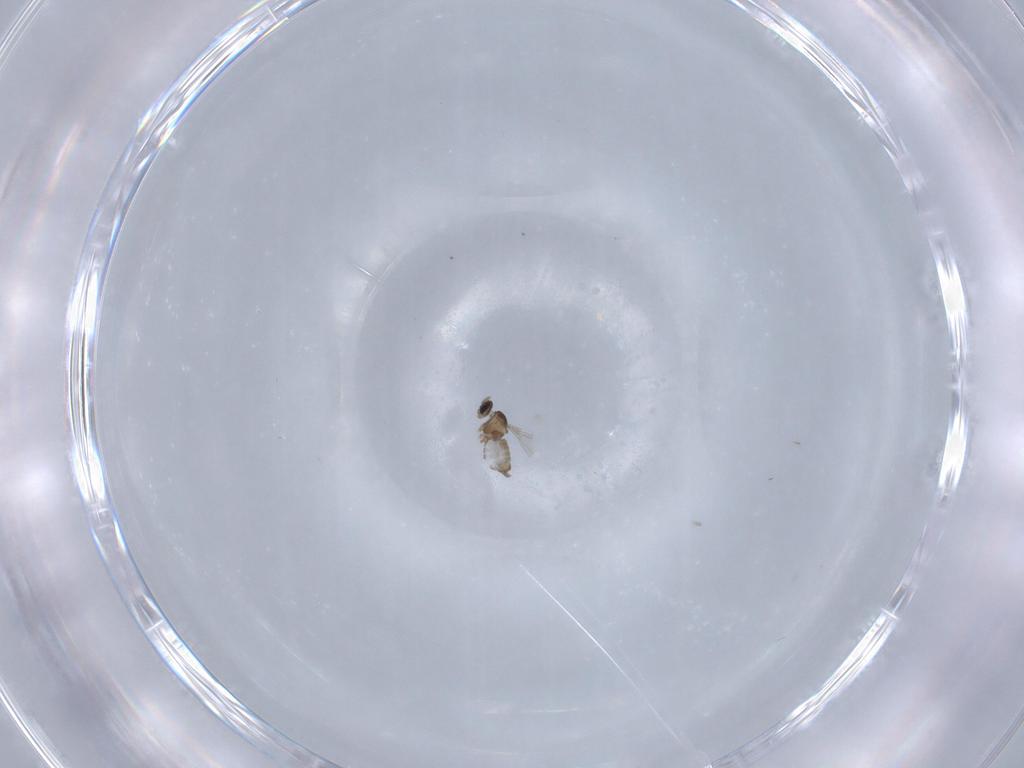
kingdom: Animalia
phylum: Arthropoda
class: Insecta
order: Diptera
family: Cecidomyiidae
